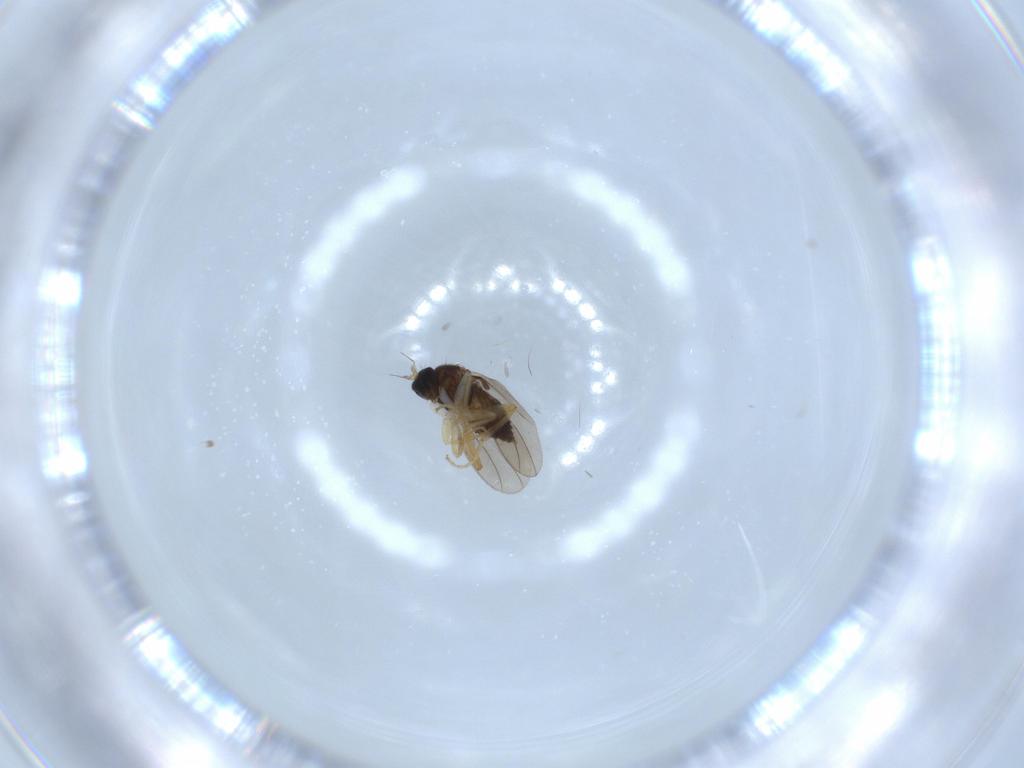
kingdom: Animalia
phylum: Arthropoda
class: Insecta
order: Diptera
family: Hybotidae
